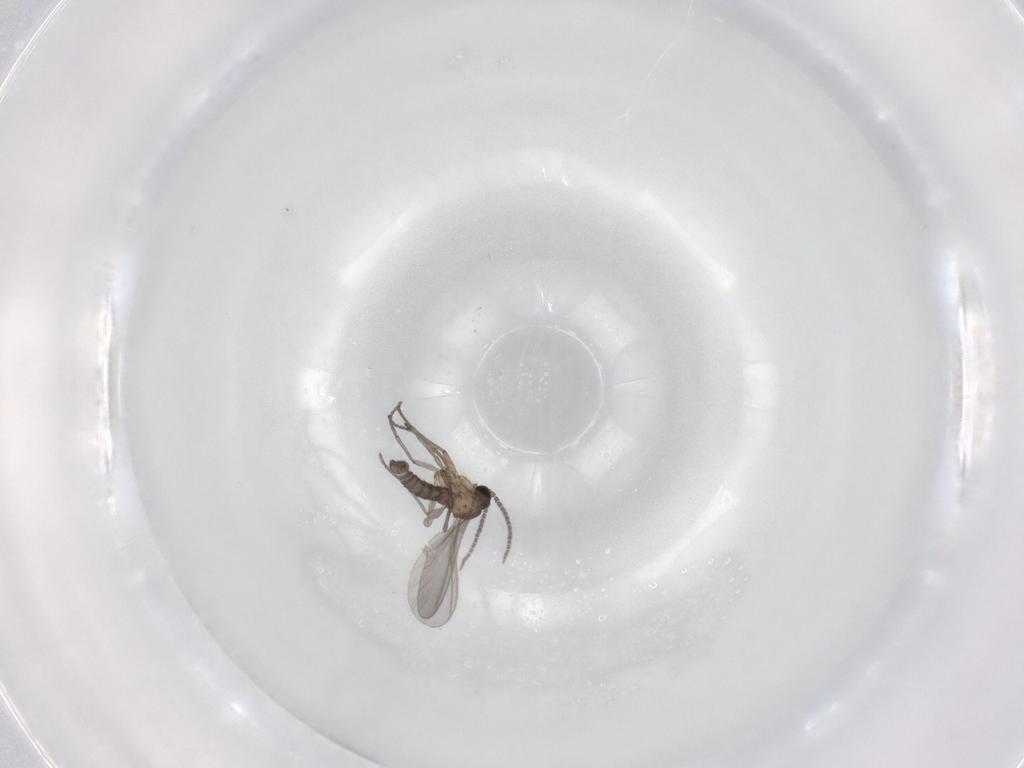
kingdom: Animalia
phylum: Arthropoda
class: Insecta
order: Diptera
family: Sciaridae
